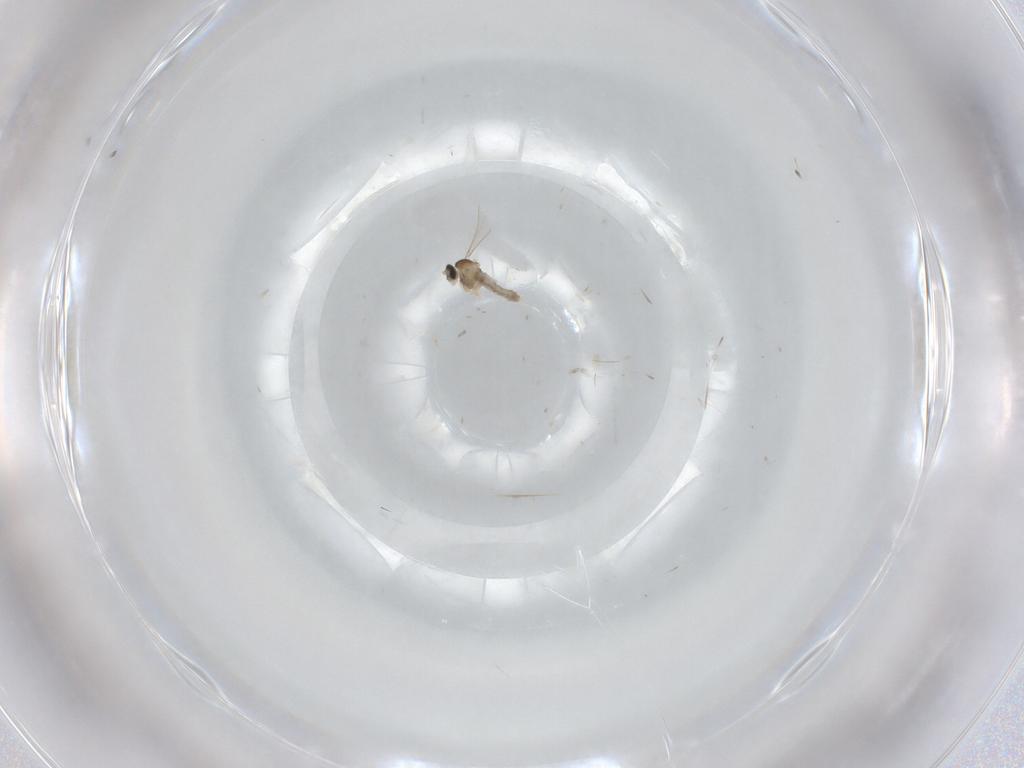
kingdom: Animalia
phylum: Arthropoda
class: Insecta
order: Diptera
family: Cecidomyiidae
